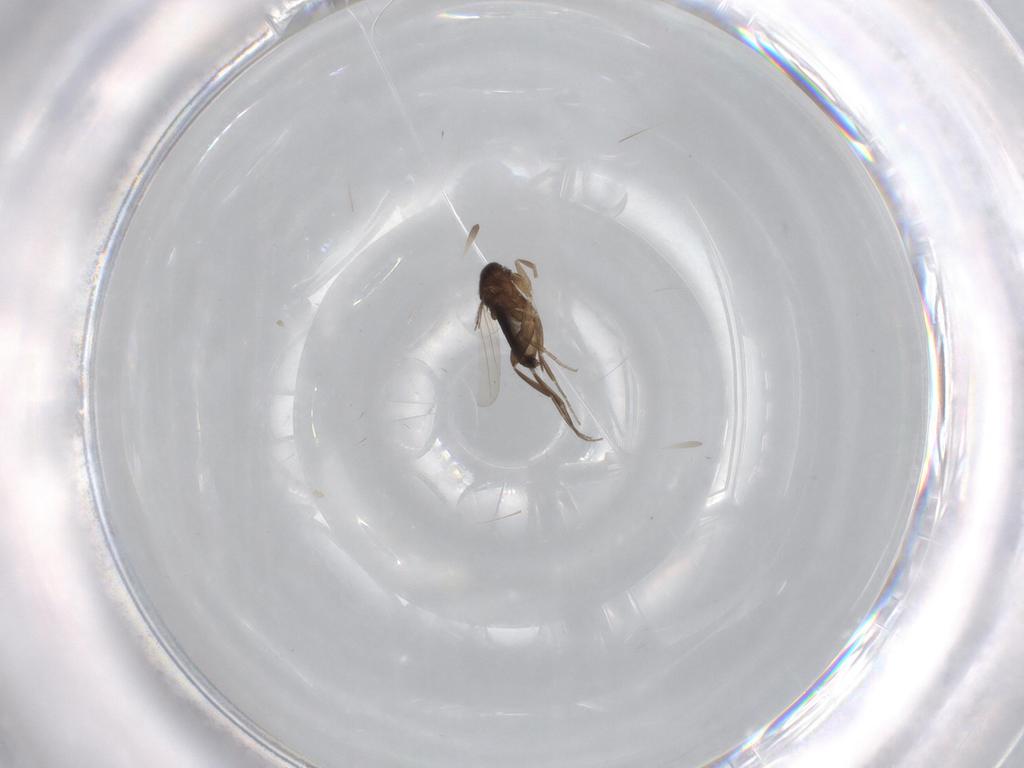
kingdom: Animalia
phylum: Arthropoda
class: Insecta
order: Diptera
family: Phoridae
